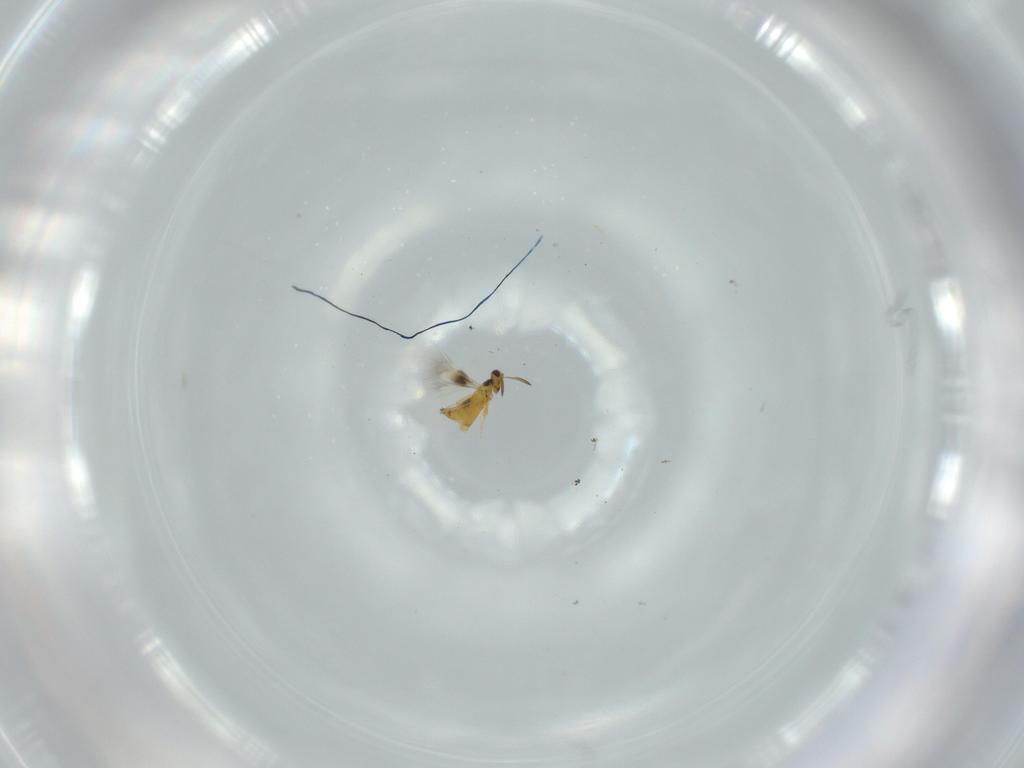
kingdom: Animalia
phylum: Arthropoda
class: Insecta
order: Hymenoptera
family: Signiphoridae
